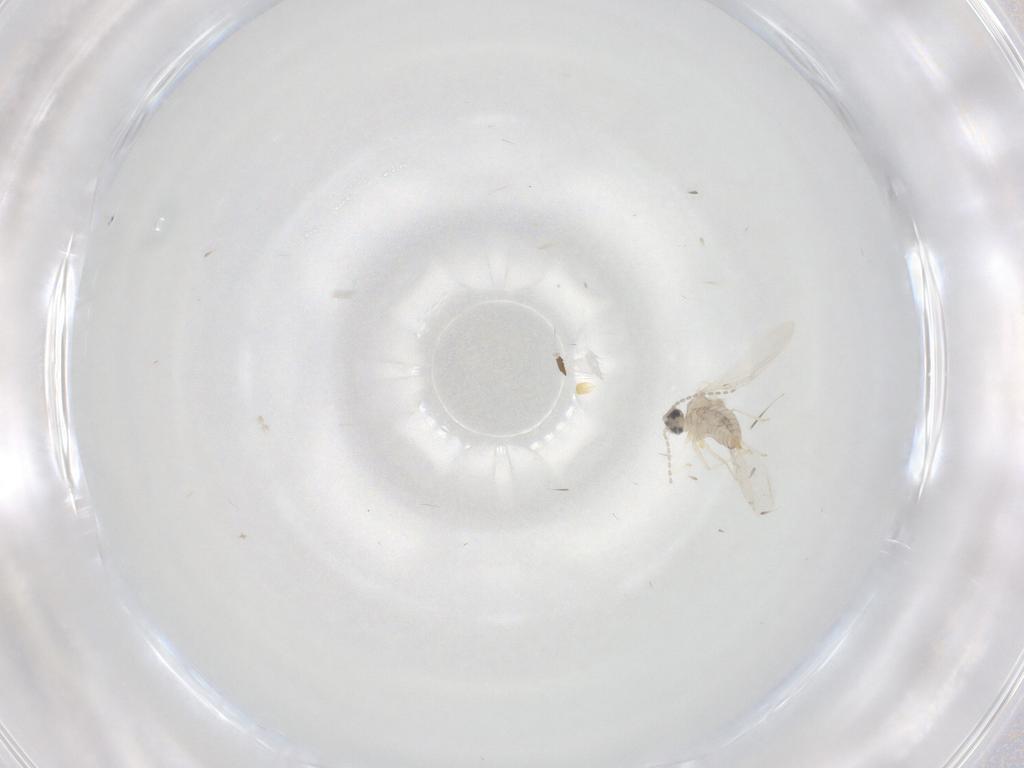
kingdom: Animalia
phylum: Arthropoda
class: Insecta
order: Diptera
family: Cecidomyiidae
